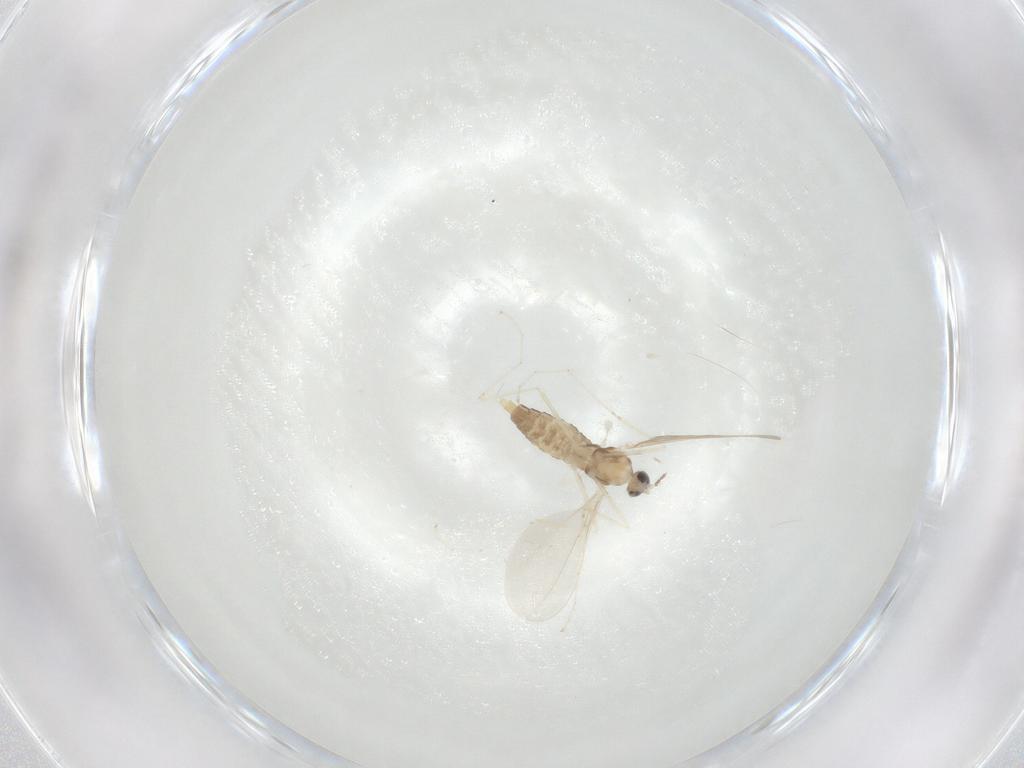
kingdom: Animalia
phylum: Arthropoda
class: Insecta
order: Diptera
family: Cecidomyiidae
